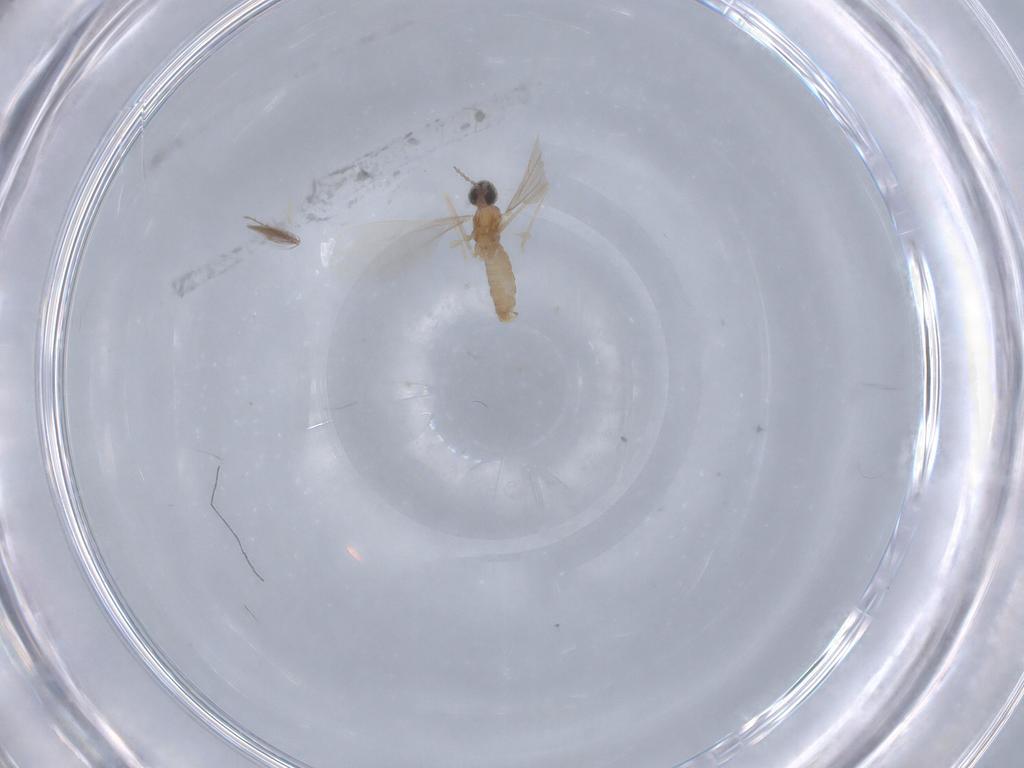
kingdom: Animalia
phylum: Arthropoda
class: Insecta
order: Diptera
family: Cecidomyiidae
